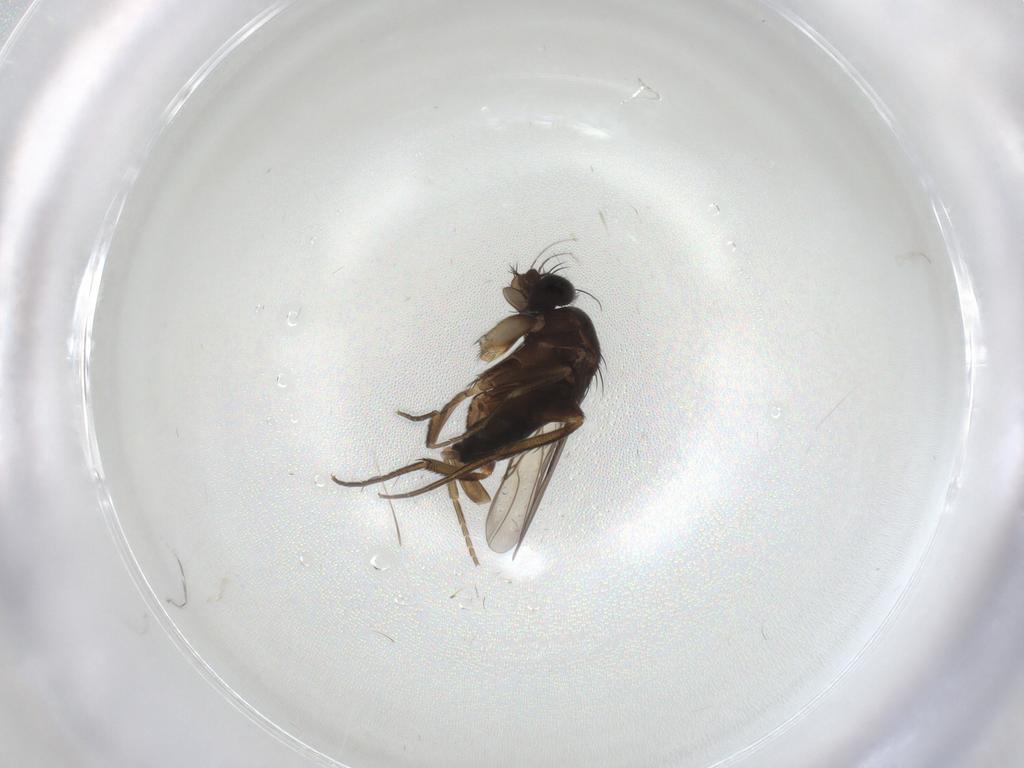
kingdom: Animalia
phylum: Arthropoda
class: Insecta
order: Diptera
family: Phoridae
